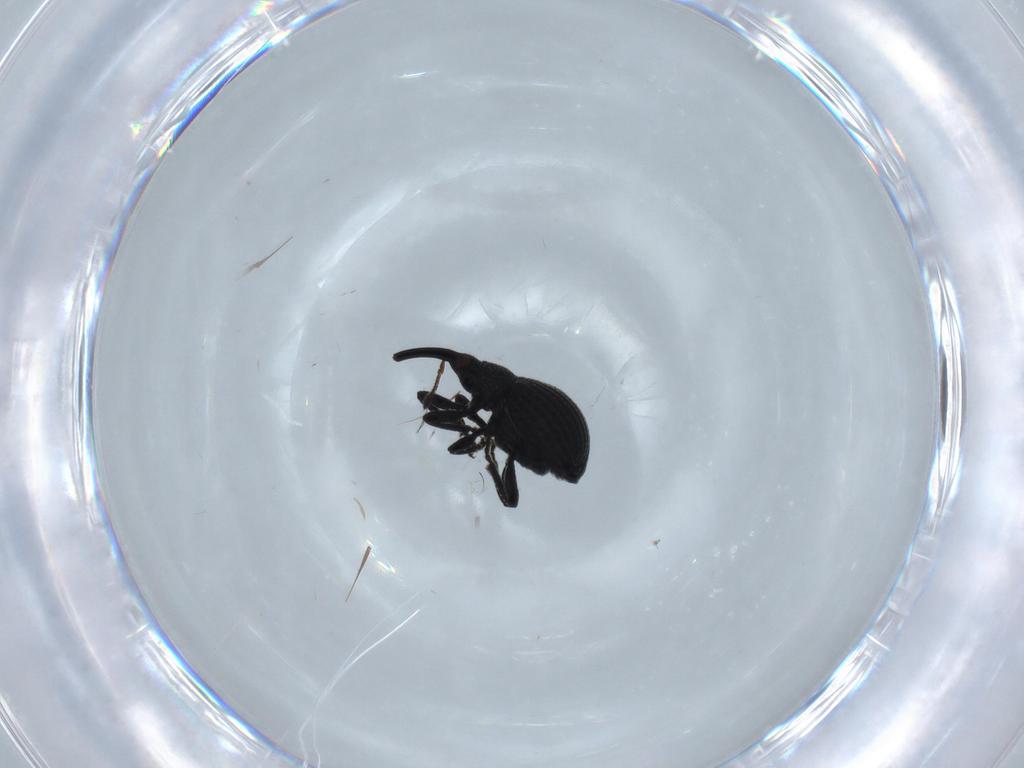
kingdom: Animalia
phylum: Arthropoda
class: Insecta
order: Coleoptera
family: Brentidae
